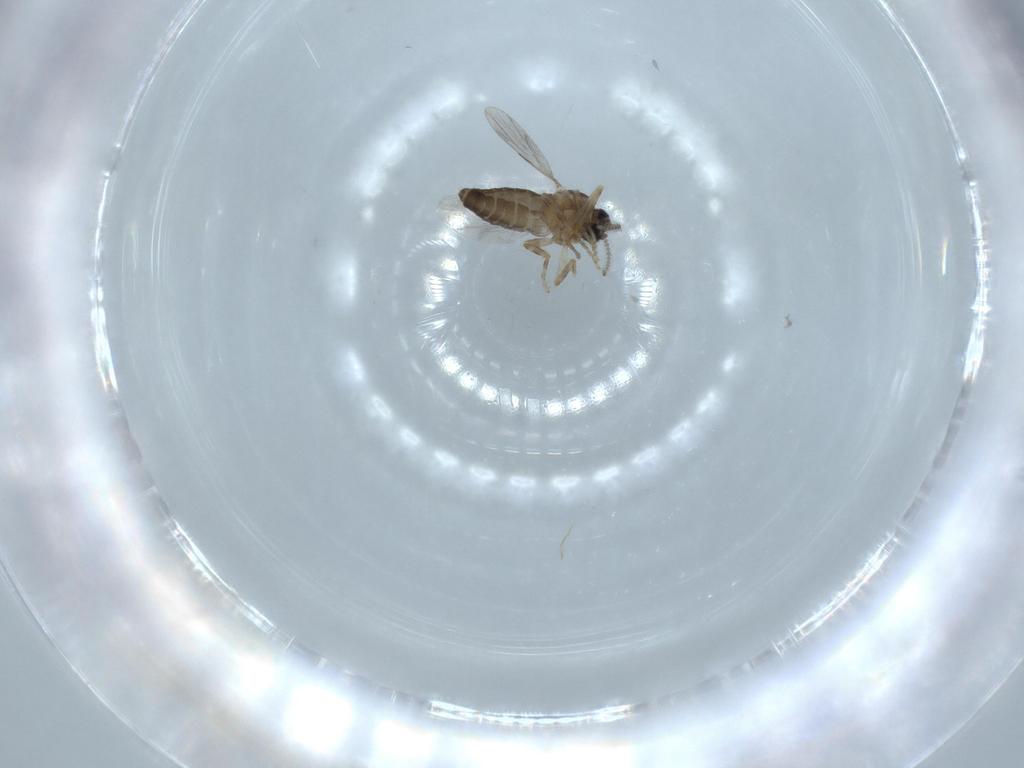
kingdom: Animalia
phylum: Arthropoda
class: Insecta
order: Diptera
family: Ceratopogonidae
